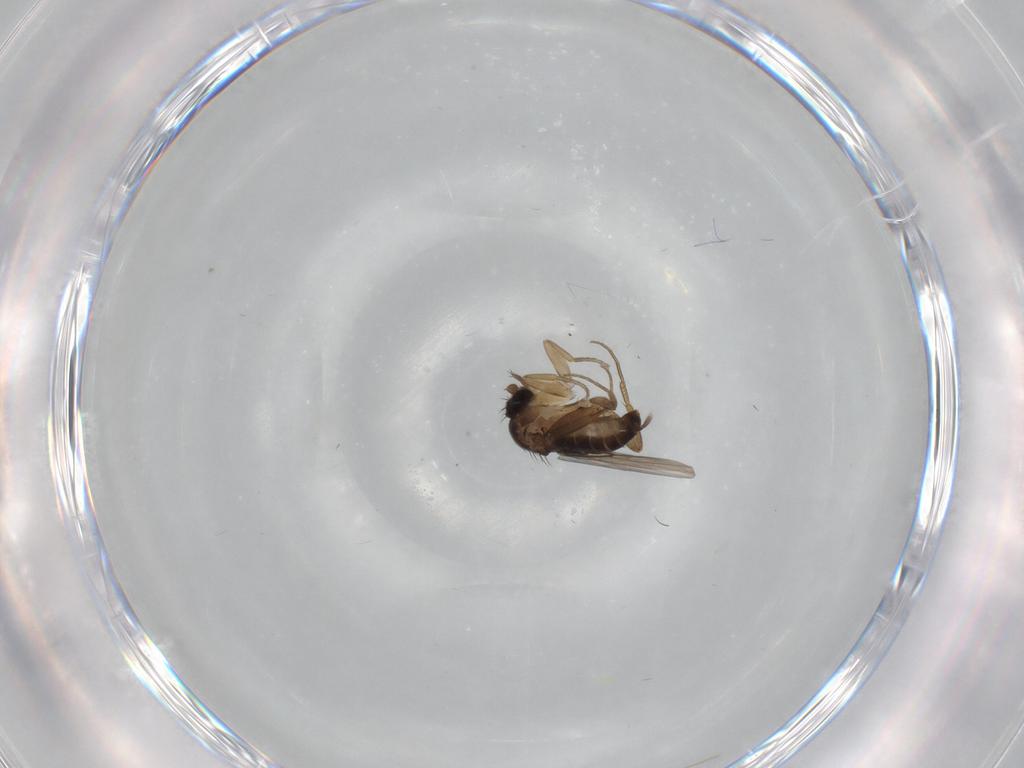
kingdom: Animalia
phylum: Arthropoda
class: Insecta
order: Diptera
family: Phoridae
